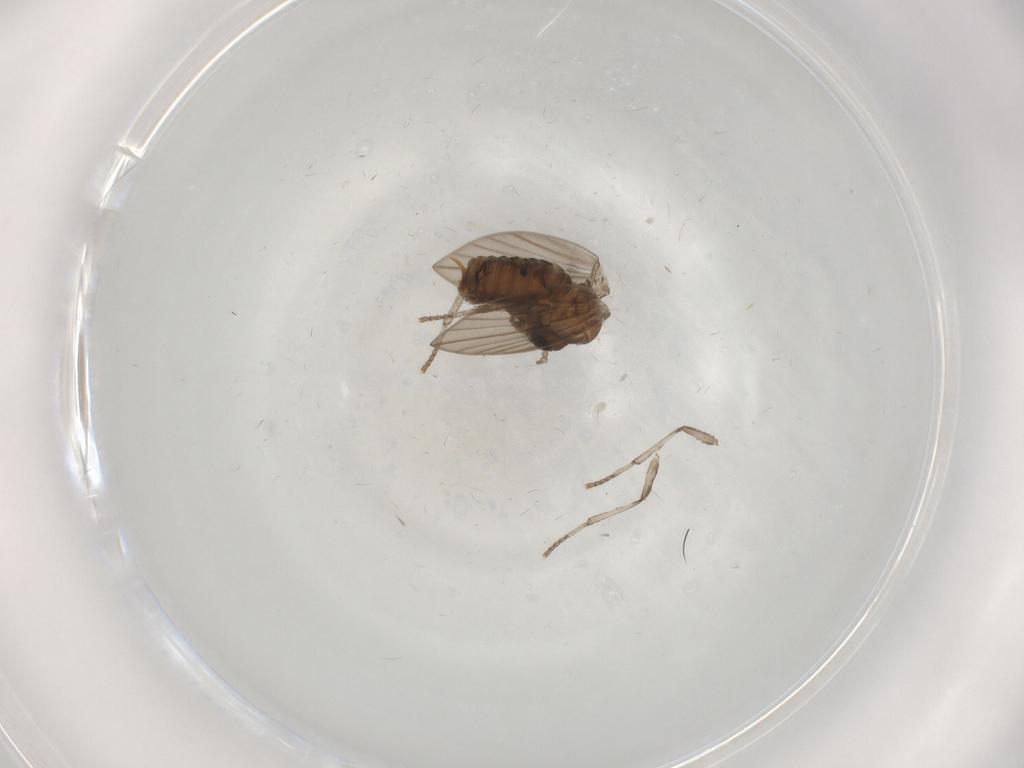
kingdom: Animalia
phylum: Arthropoda
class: Insecta
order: Diptera
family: Psychodidae
